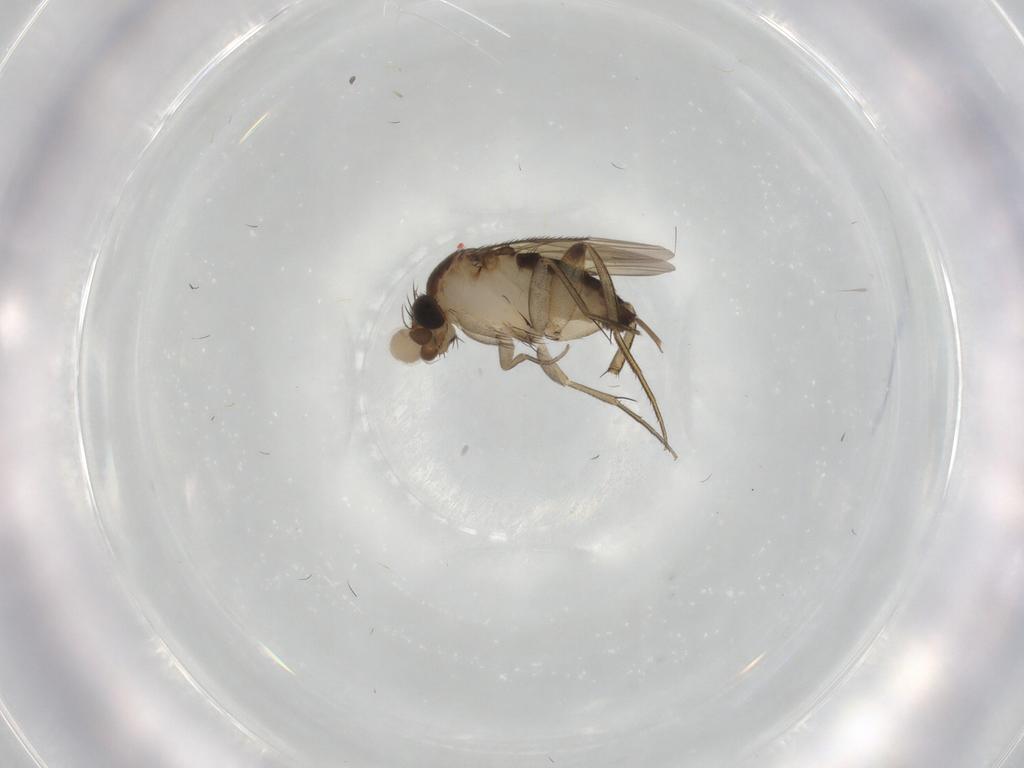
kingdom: Animalia
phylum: Arthropoda
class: Insecta
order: Diptera
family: Phoridae
